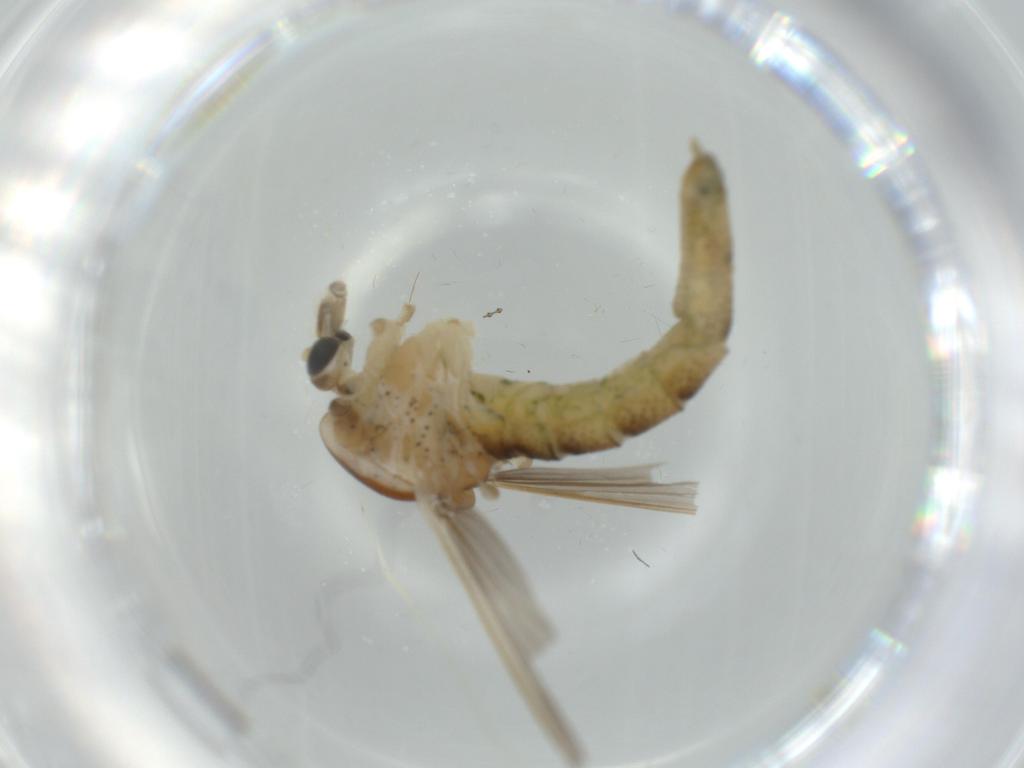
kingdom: Animalia
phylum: Arthropoda
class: Insecta
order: Diptera
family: Chironomidae
